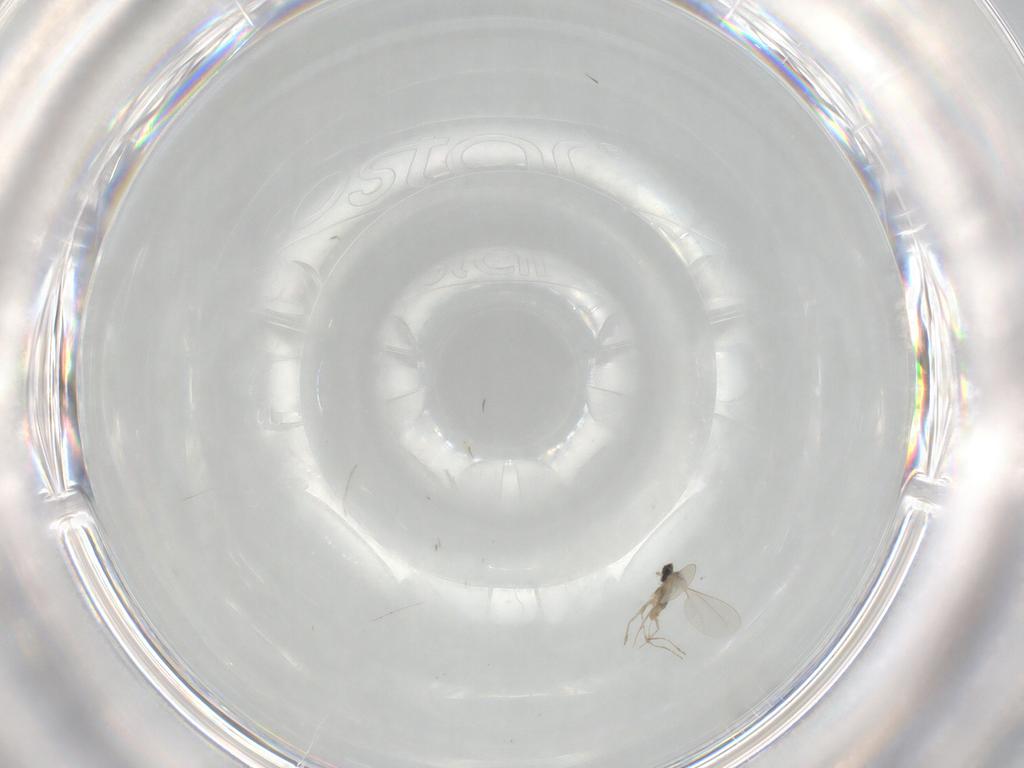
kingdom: Animalia
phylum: Arthropoda
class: Insecta
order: Diptera
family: Cecidomyiidae
